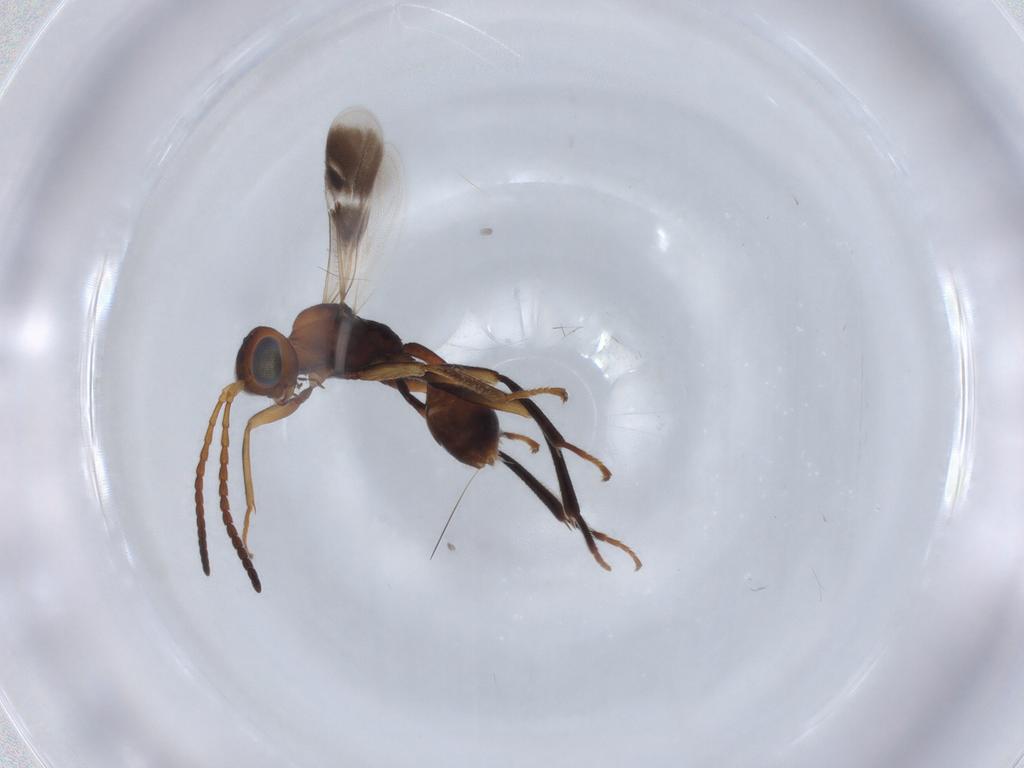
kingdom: Animalia
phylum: Arthropoda
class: Insecta
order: Hymenoptera
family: Braconidae
